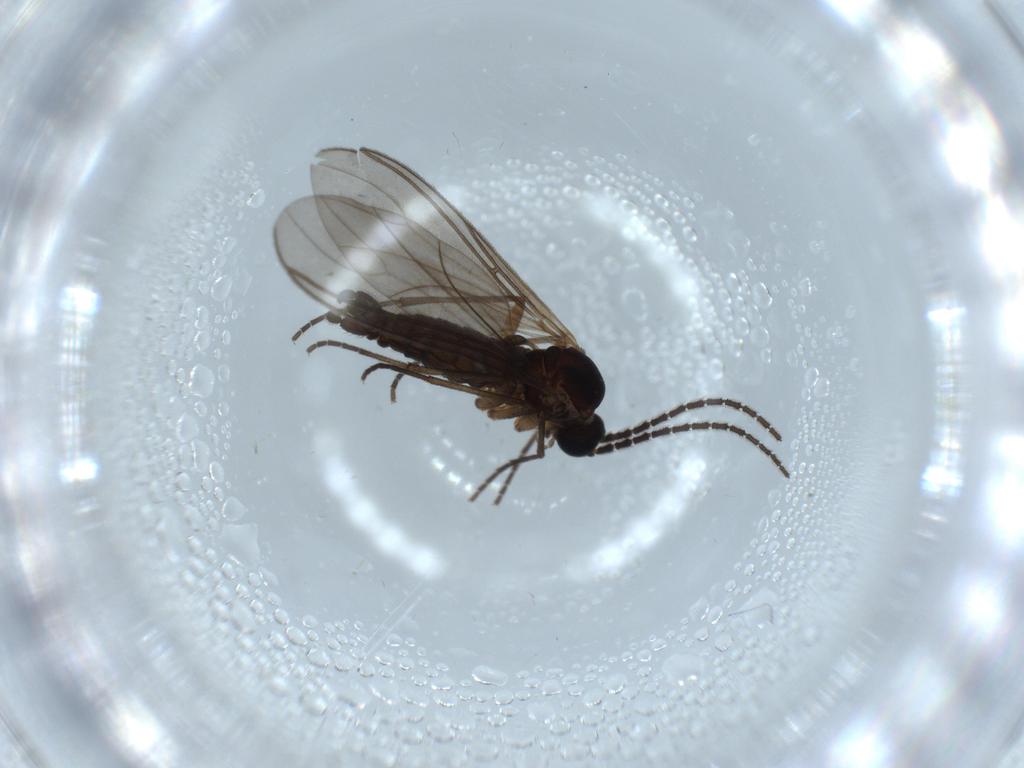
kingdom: Animalia
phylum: Arthropoda
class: Insecta
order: Diptera
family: Sciaridae
